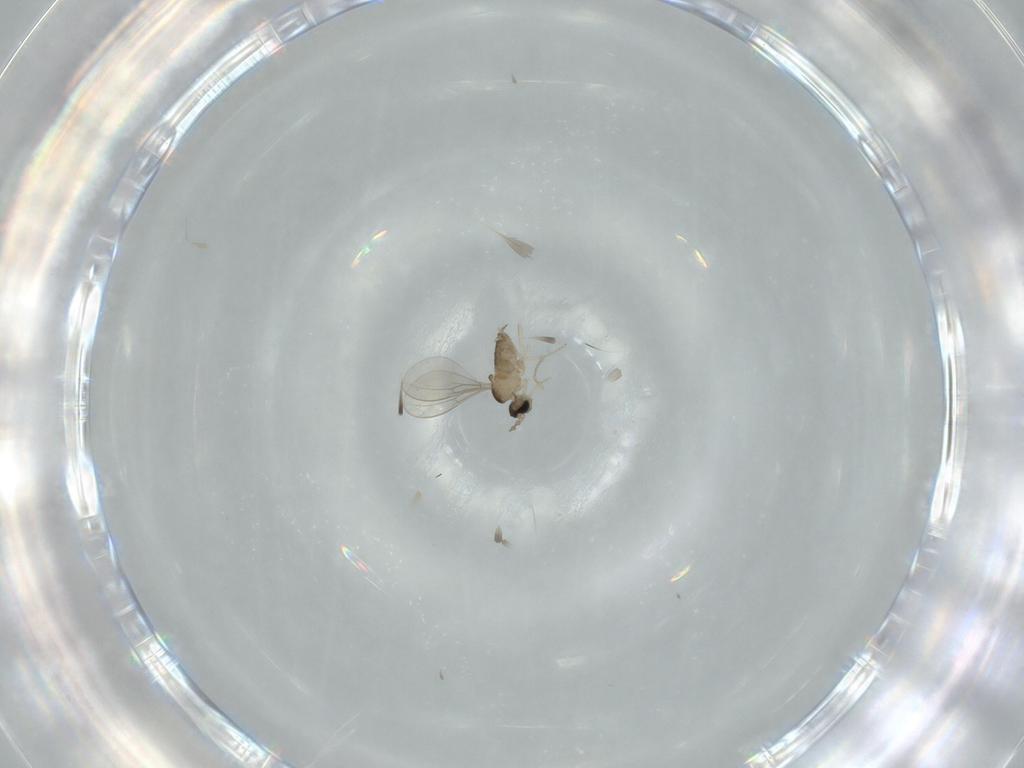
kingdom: Animalia
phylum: Arthropoda
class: Insecta
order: Diptera
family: Cecidomyiidae
